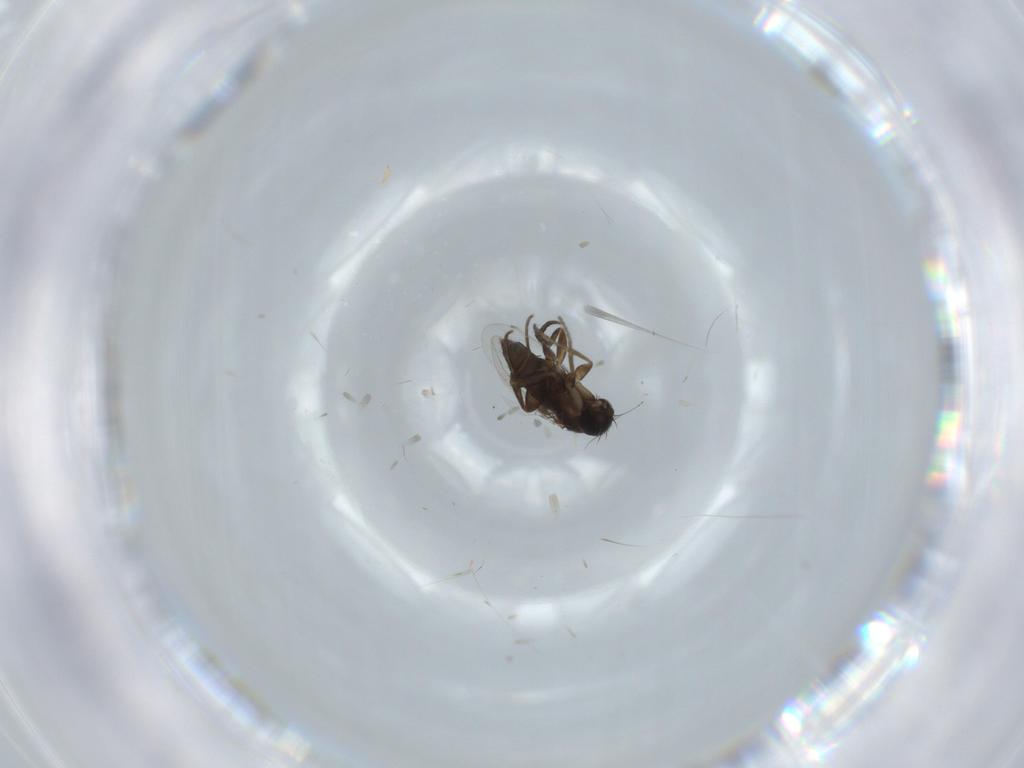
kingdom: Animalia
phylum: Arthropoda
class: Insecta
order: Diptera
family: Drosophilidae
